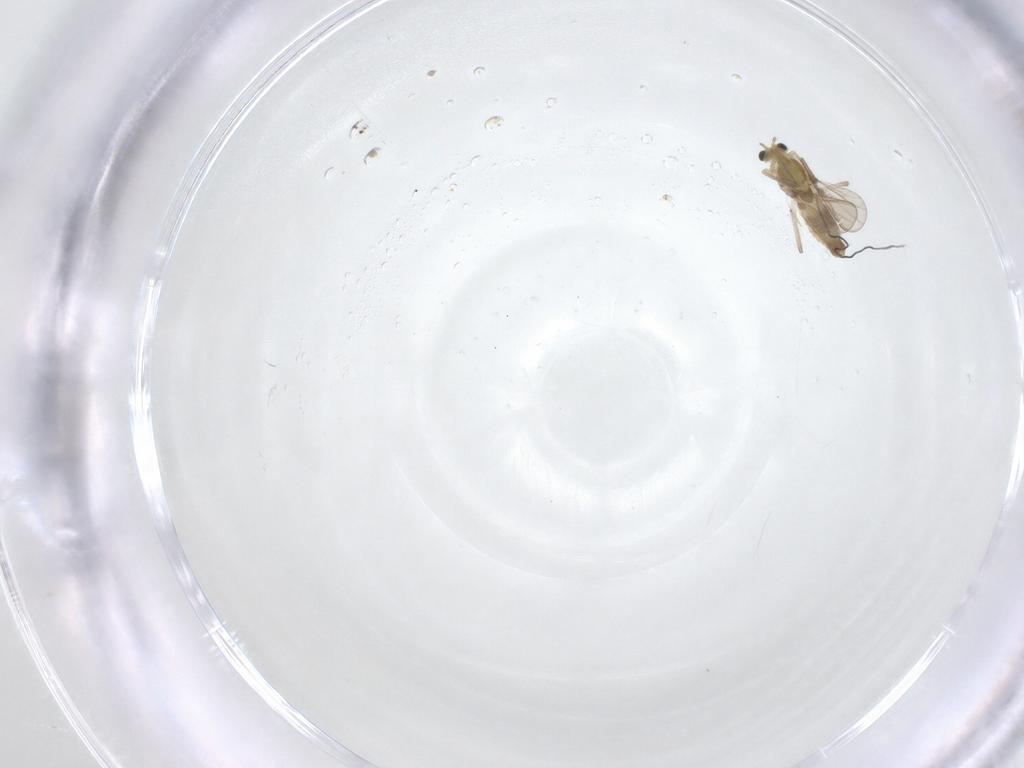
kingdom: Animalia
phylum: Arthropoda
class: Insecta
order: Diptera
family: Chironomidae
